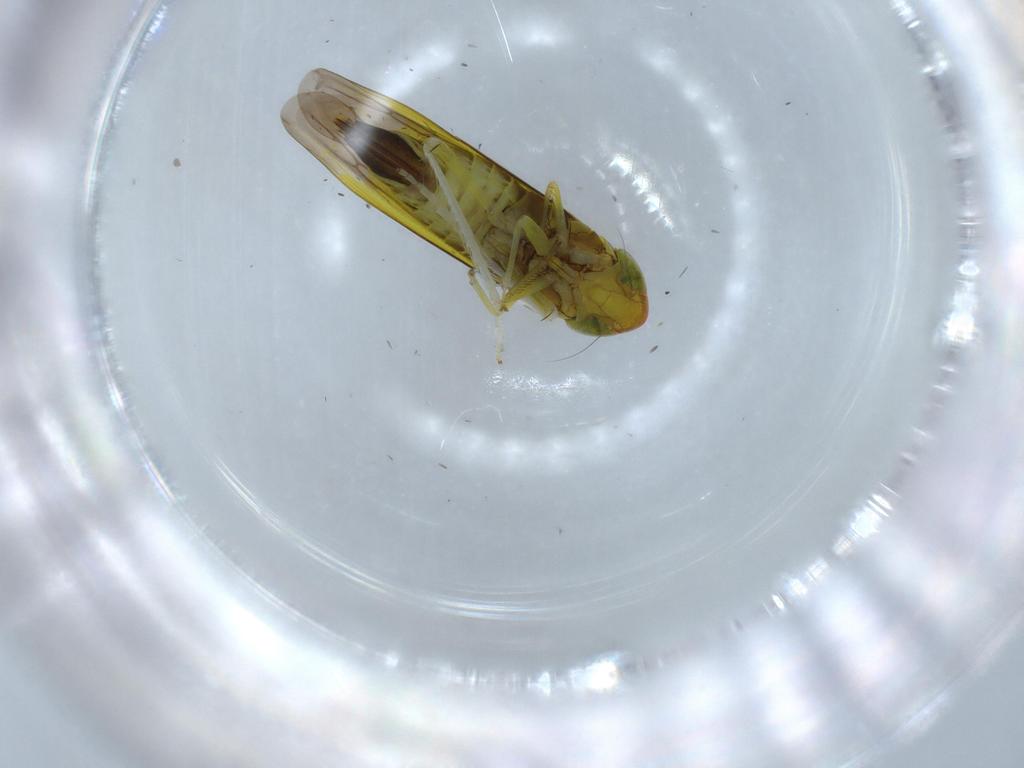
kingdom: Animalia
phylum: Arthropoda
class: Insecta
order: Hemiptera
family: Cicadellidae
